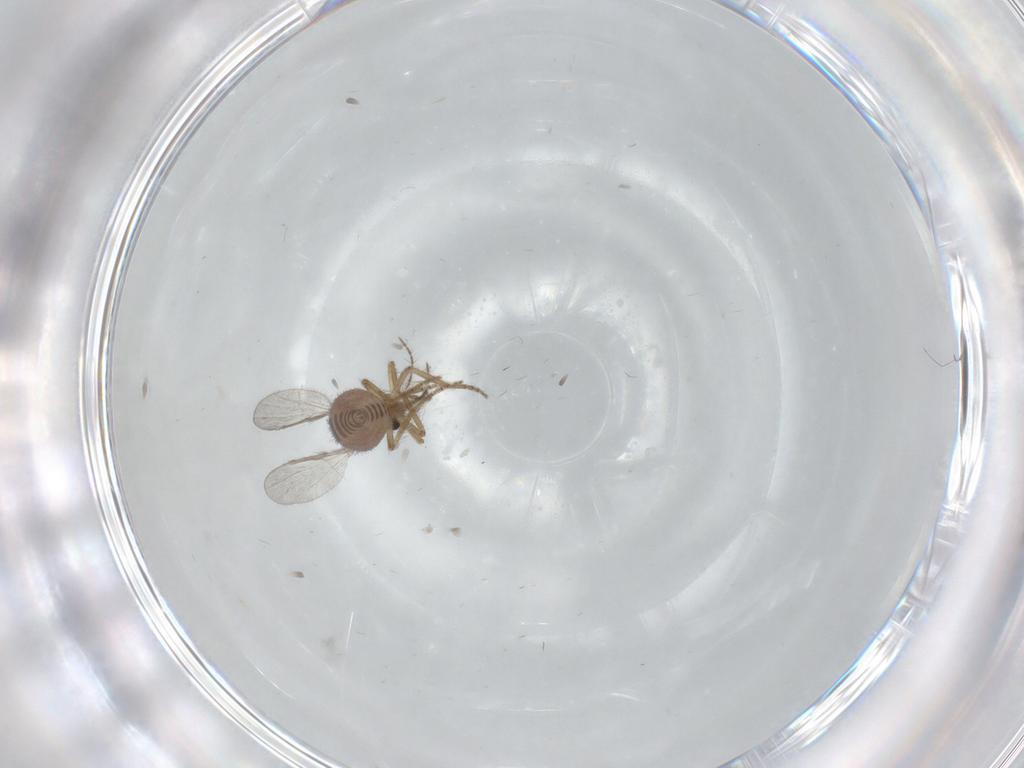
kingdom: Animalia
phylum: Arthropoda
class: Insecta
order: Diptera
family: Ceratopogonidae
